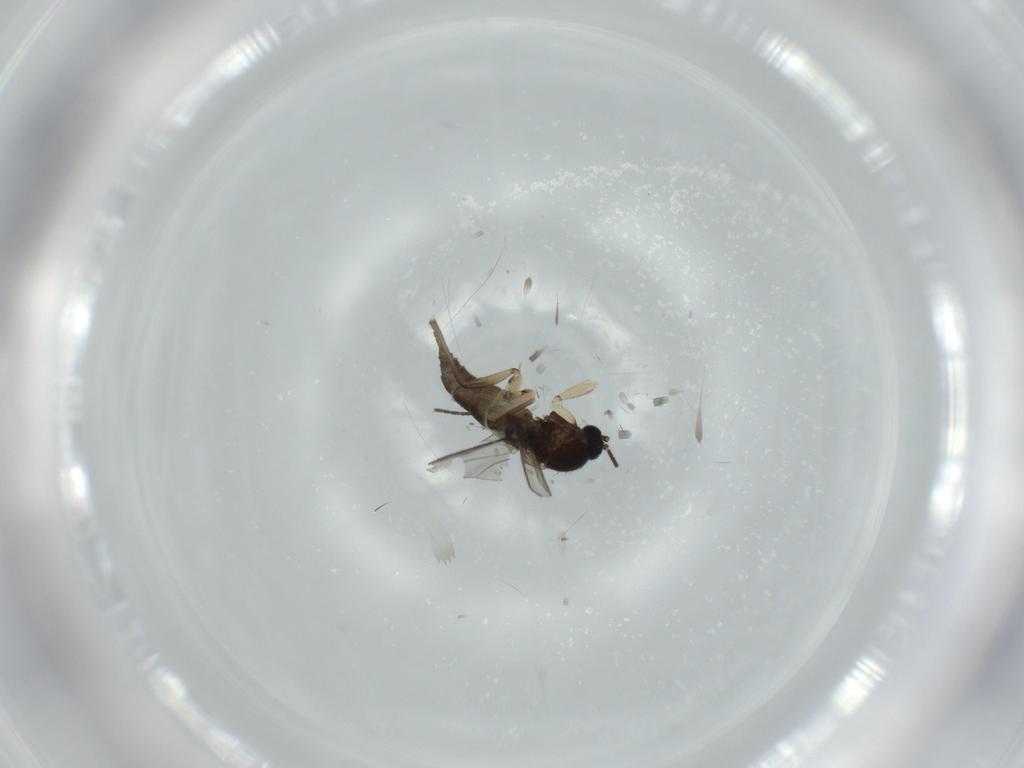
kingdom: Animalia
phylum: Arthropoda
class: Insecta
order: Diptera
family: Sciaridae
